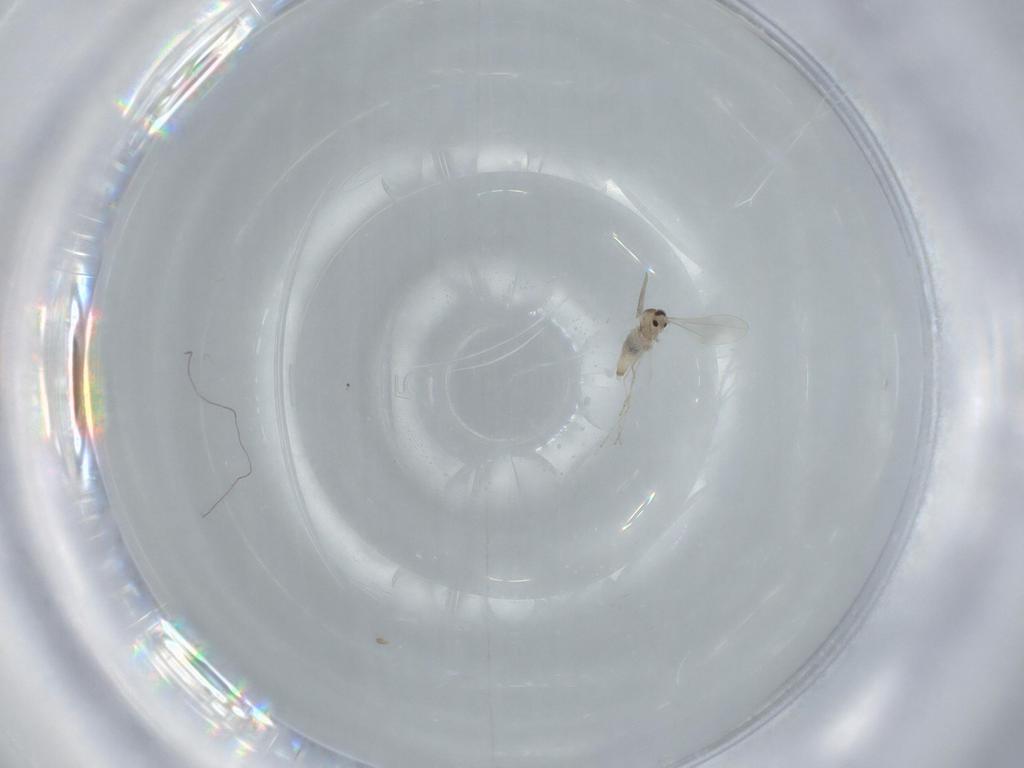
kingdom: Animalia
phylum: Arthropoda
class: Insecta
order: Diptera
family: Cecidomyiidae
